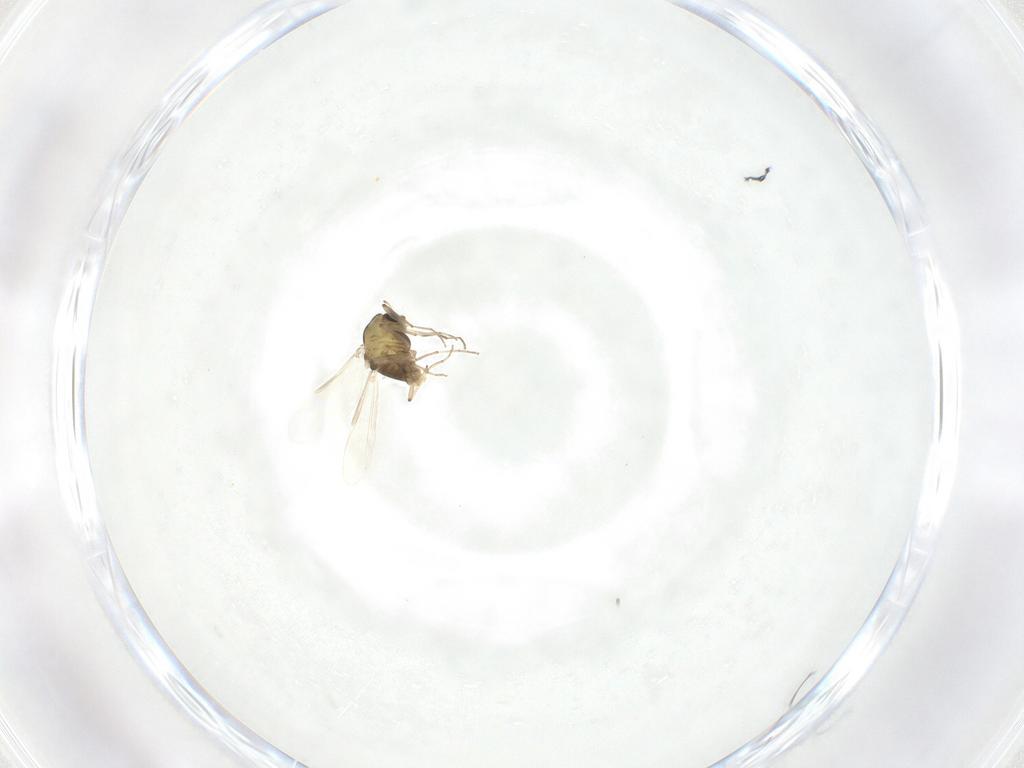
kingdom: Animalia
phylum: Arthropoda
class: Insecta
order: Diptera
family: Chironomidae
